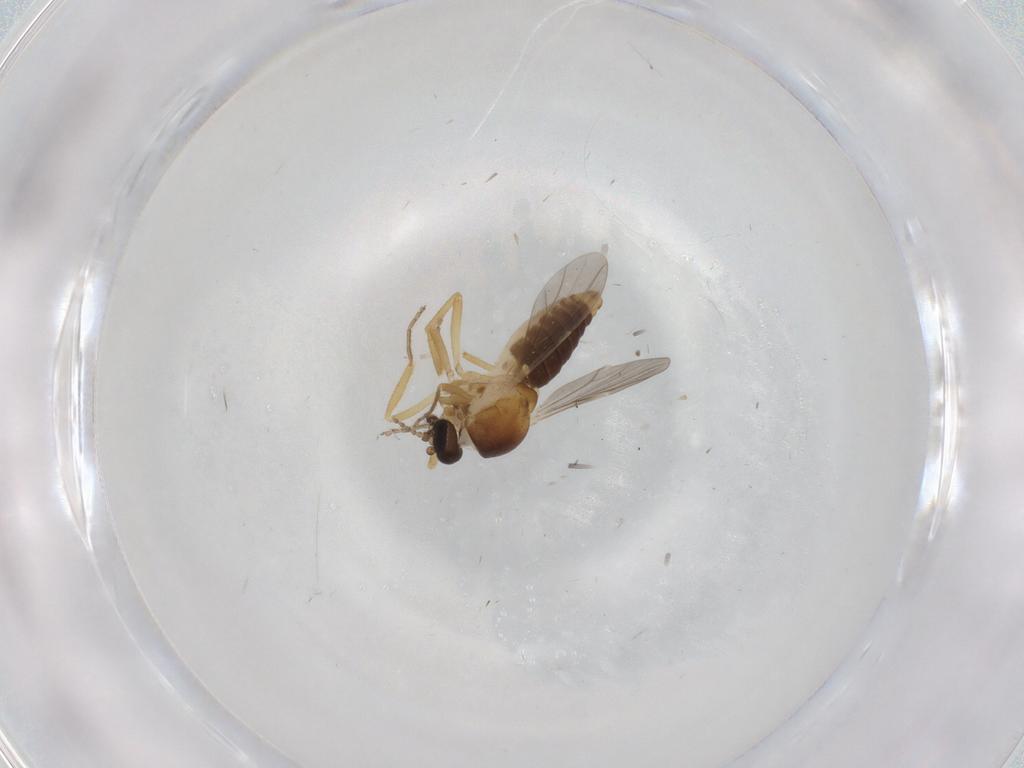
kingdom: Animalia
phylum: Arthropoda
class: Insecta
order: Diptera
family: Ceratopogonidae
